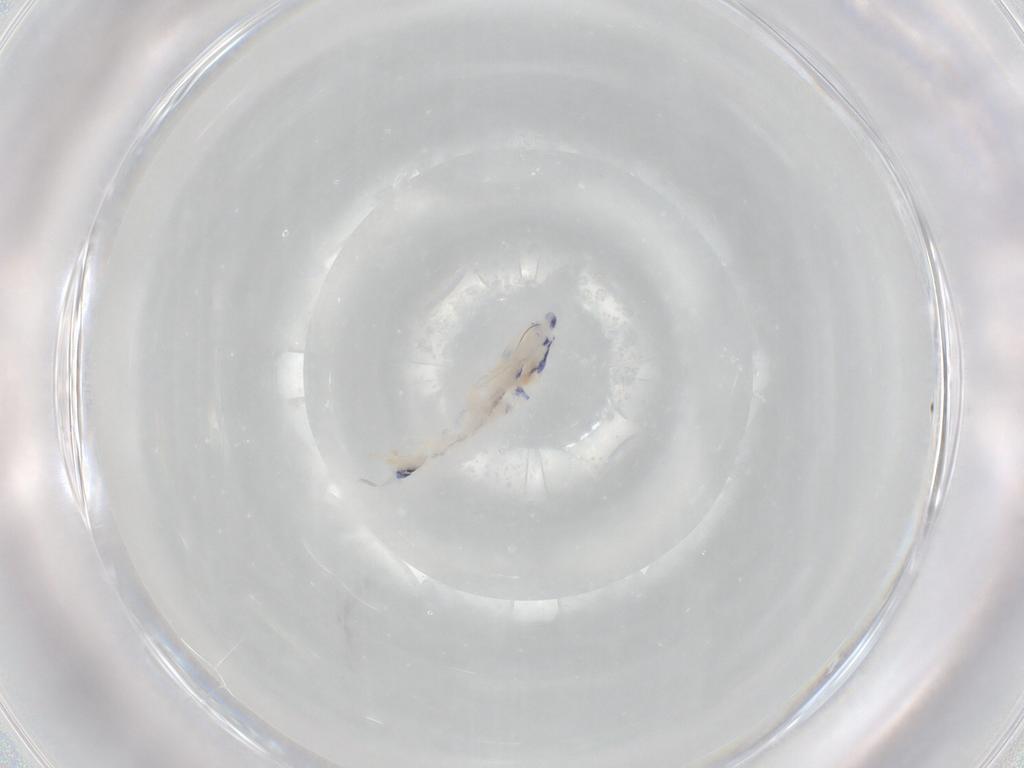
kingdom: Animalia
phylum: Arthropoda
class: Collembola
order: Entomobryomorpha
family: Entomobryidae
